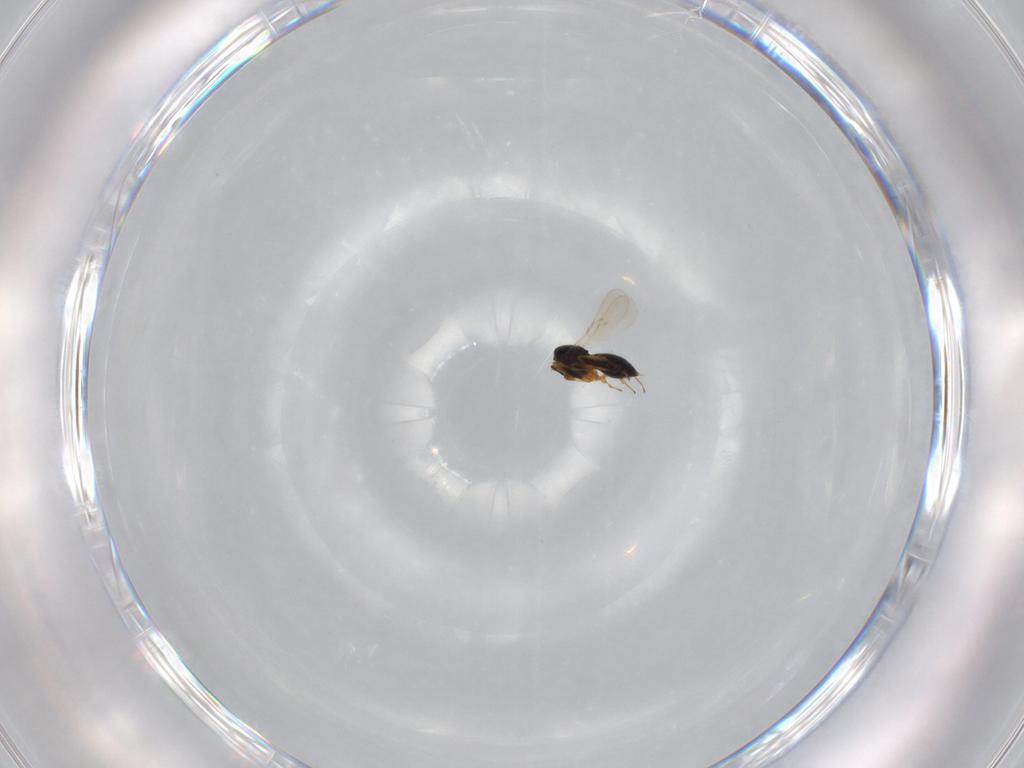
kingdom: Animalia
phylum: Arthropoda
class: Insecta
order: Hymenoptera
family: Scelionidae
